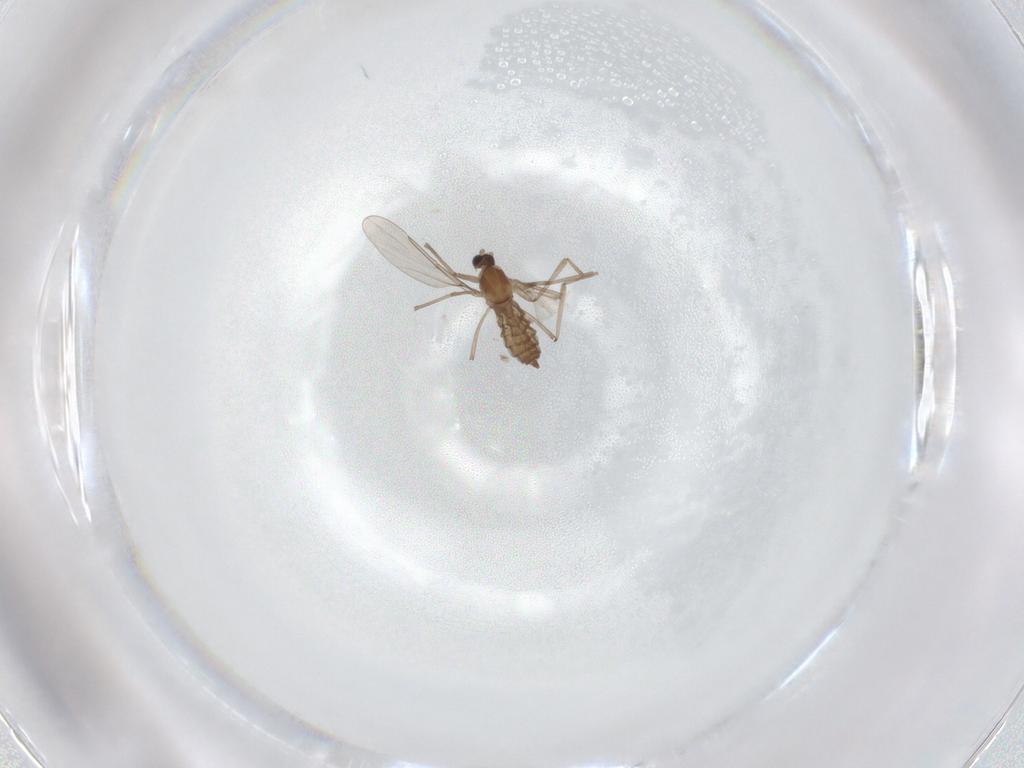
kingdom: Animalia
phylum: Arthropoda
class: Insecta
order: Diptera
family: Cecidomyiidae
